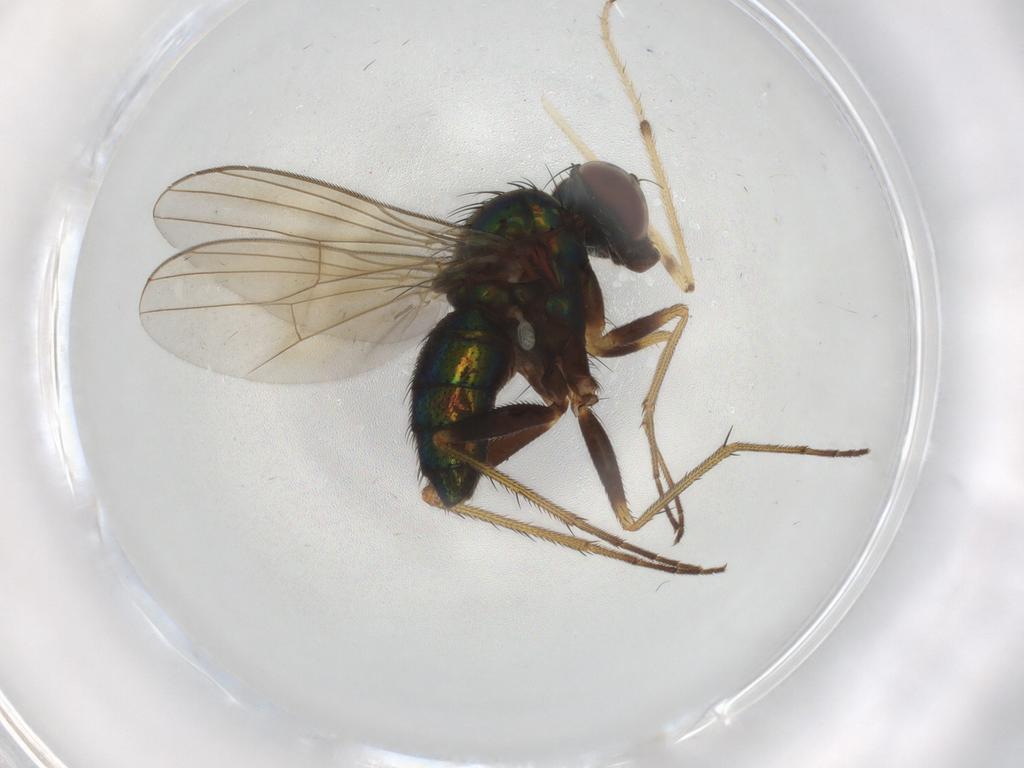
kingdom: Animalia
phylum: Arthropoda
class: Insecta
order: Diptera
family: Dolichopodidae
